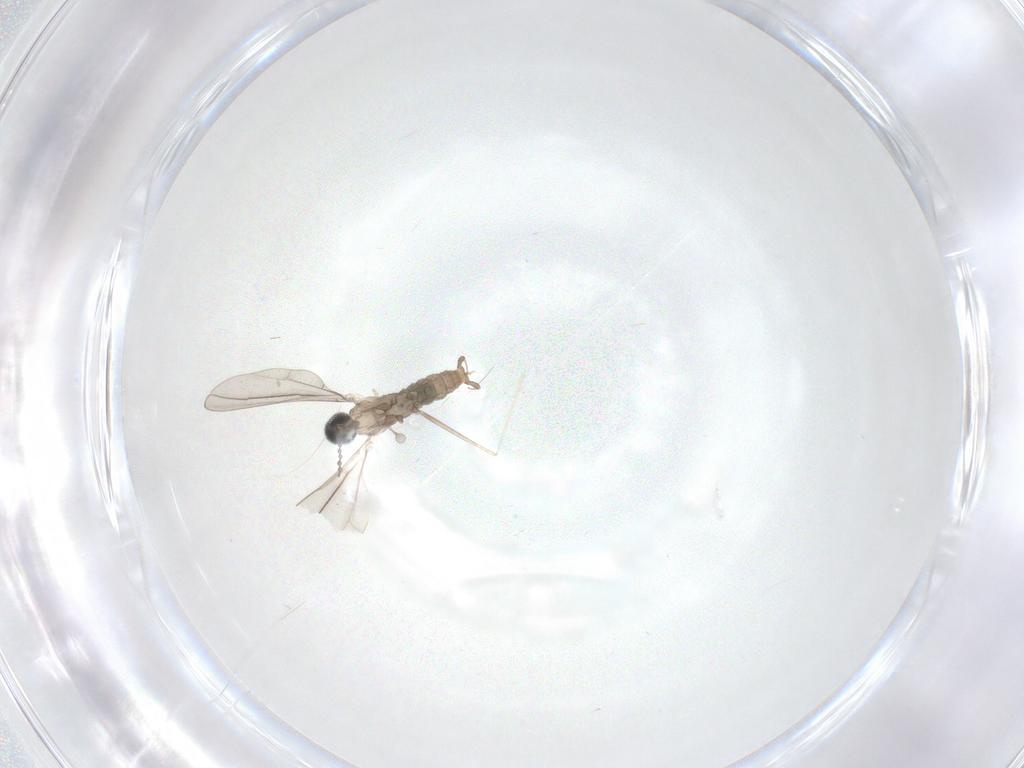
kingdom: Animalia
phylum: Arthropoda
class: Insecta
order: Diptera
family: Cecidomyiidae
